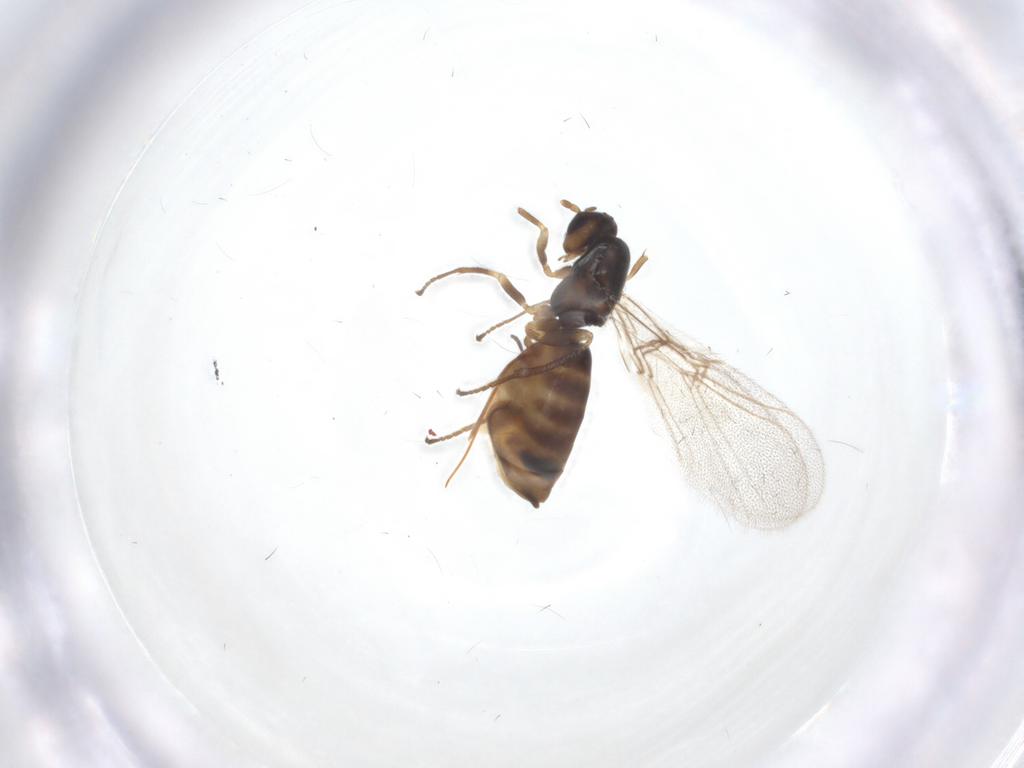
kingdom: Animalia
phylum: Arthropoda
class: Insecta
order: Hymenoptera
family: Cynipidae
